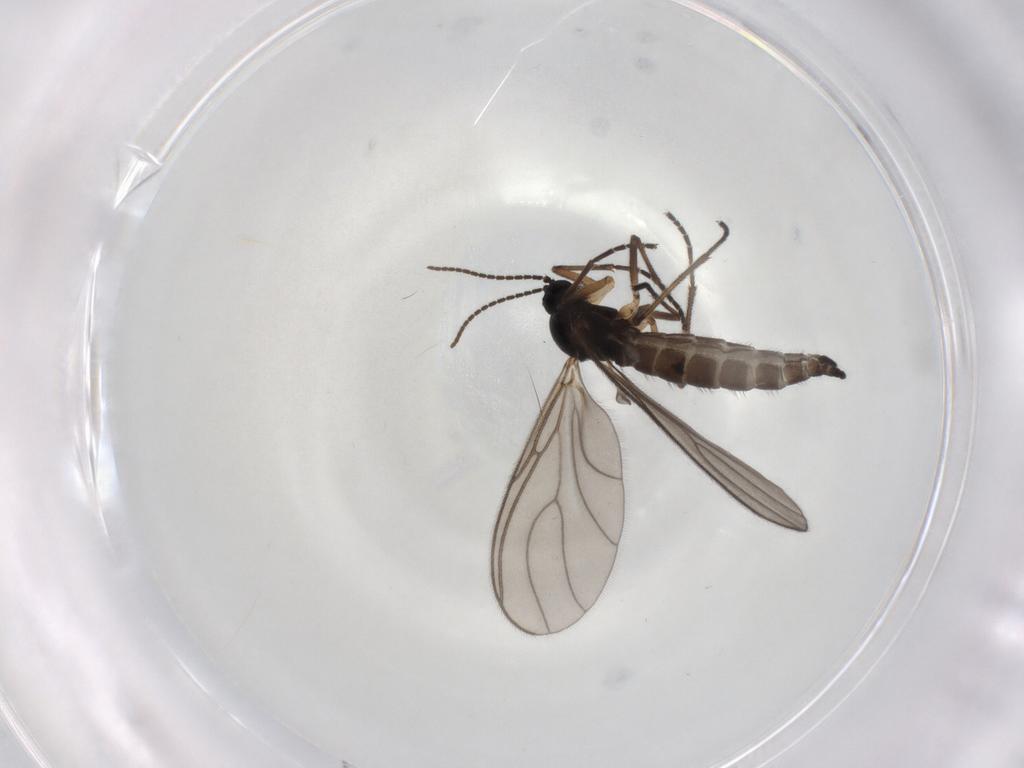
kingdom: Animalia
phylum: Arthropoda
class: Insecta
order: Diptera
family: Sciaridae
